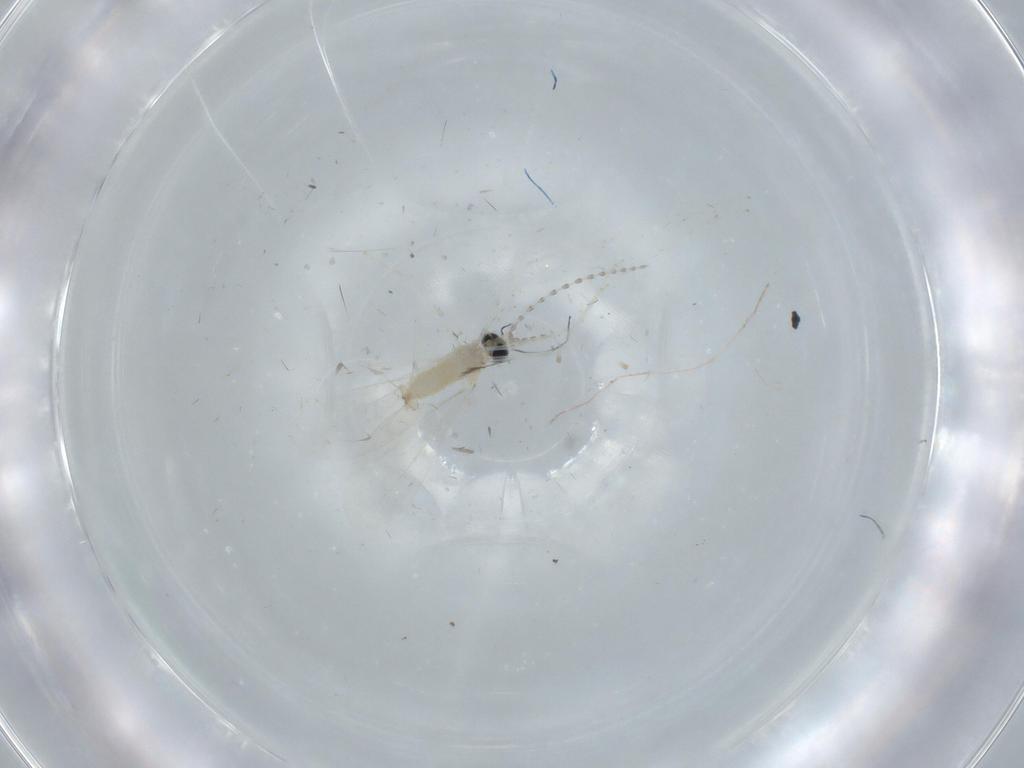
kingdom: Animalia
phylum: Arthropoda
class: Insecta
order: Diptera
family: Cecidomyiidae
